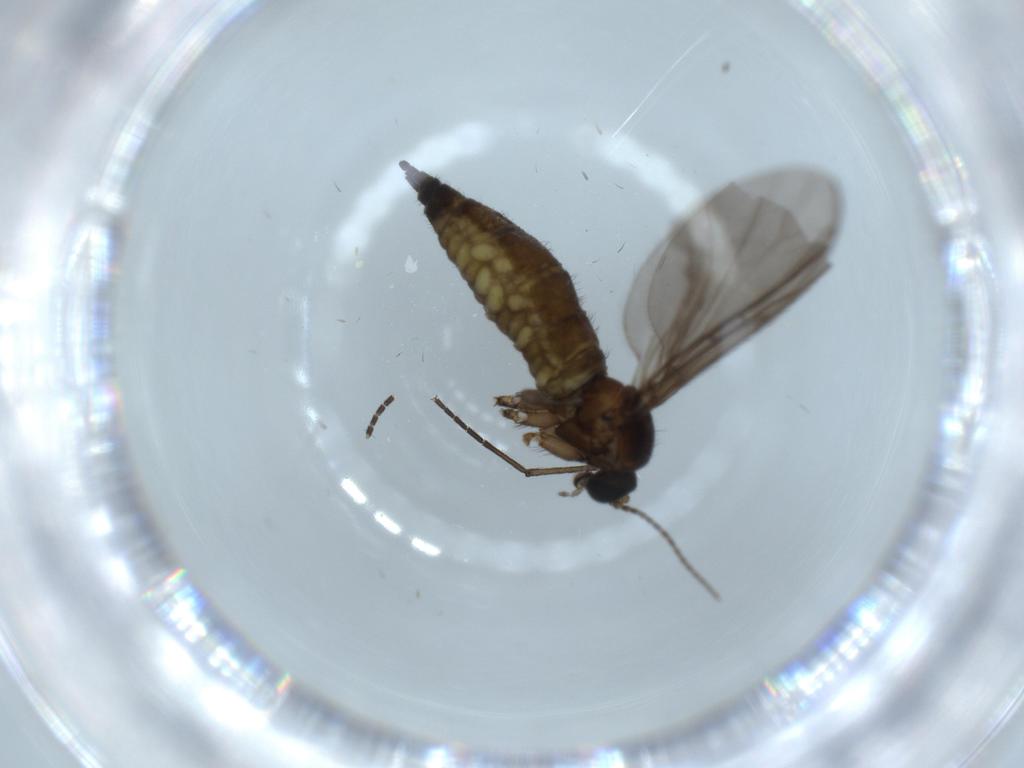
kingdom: Animalia
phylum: Arthropoda
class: Insecta
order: Diptera
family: Sciaridae
